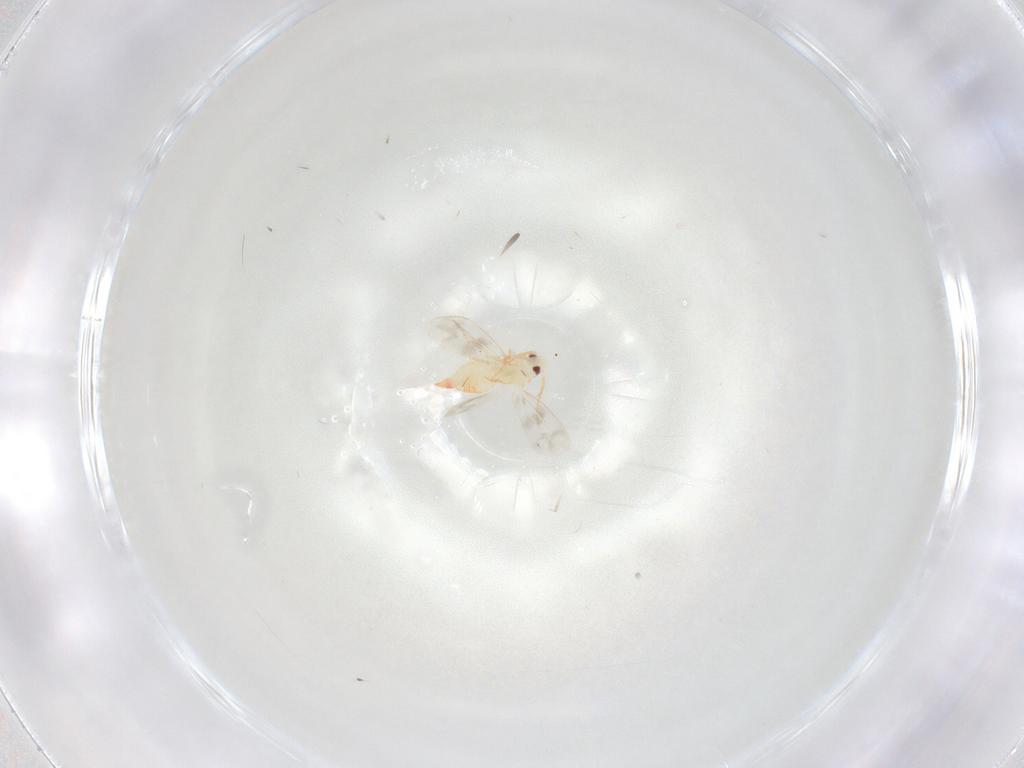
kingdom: Animalia
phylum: Arthropoda
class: Insecta
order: Hemiptera
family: Aleyrodidae
